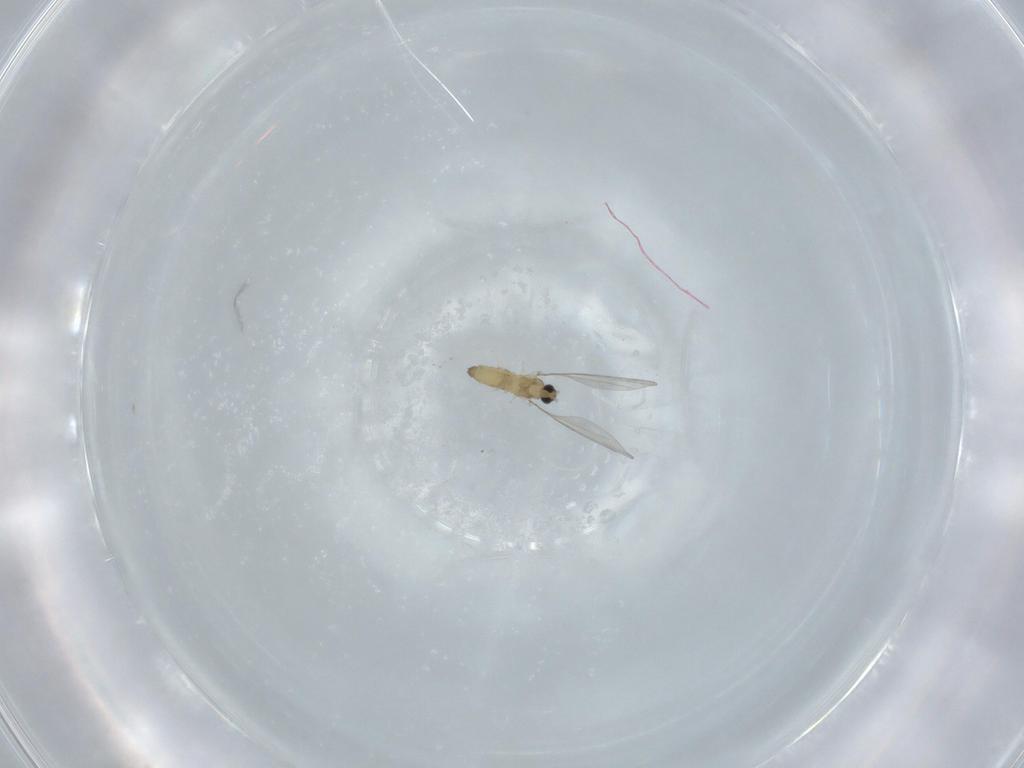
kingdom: Animalia
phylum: Arthropoda
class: Insecta
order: Diptera
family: Cecidomyiidae
